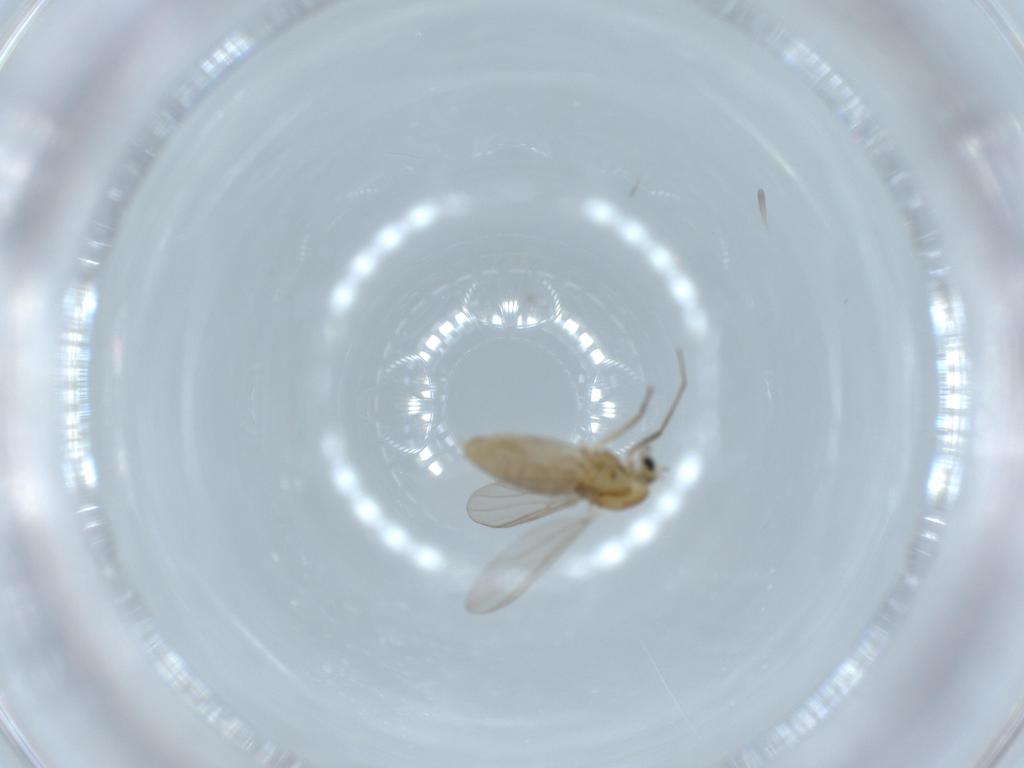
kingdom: Animalia
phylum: Arthropoda
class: Insecta
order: Diptera
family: Chironomidae
